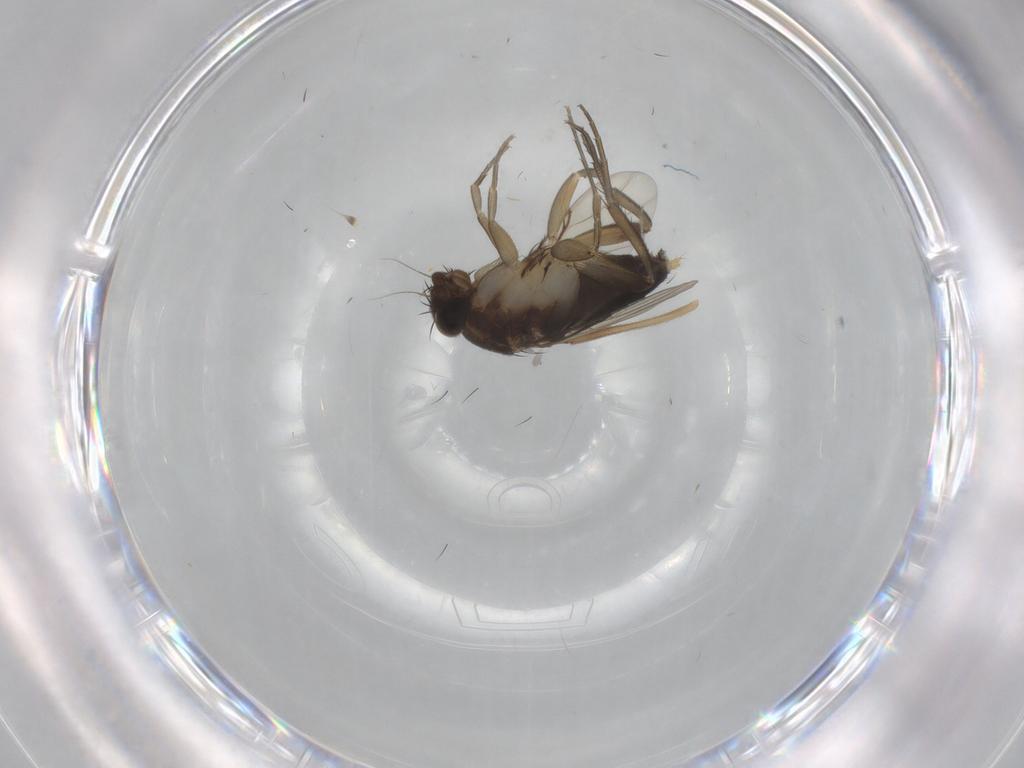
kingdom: Animalia
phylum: Arthropoda
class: Insecta
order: Diptera
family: Phoridae
